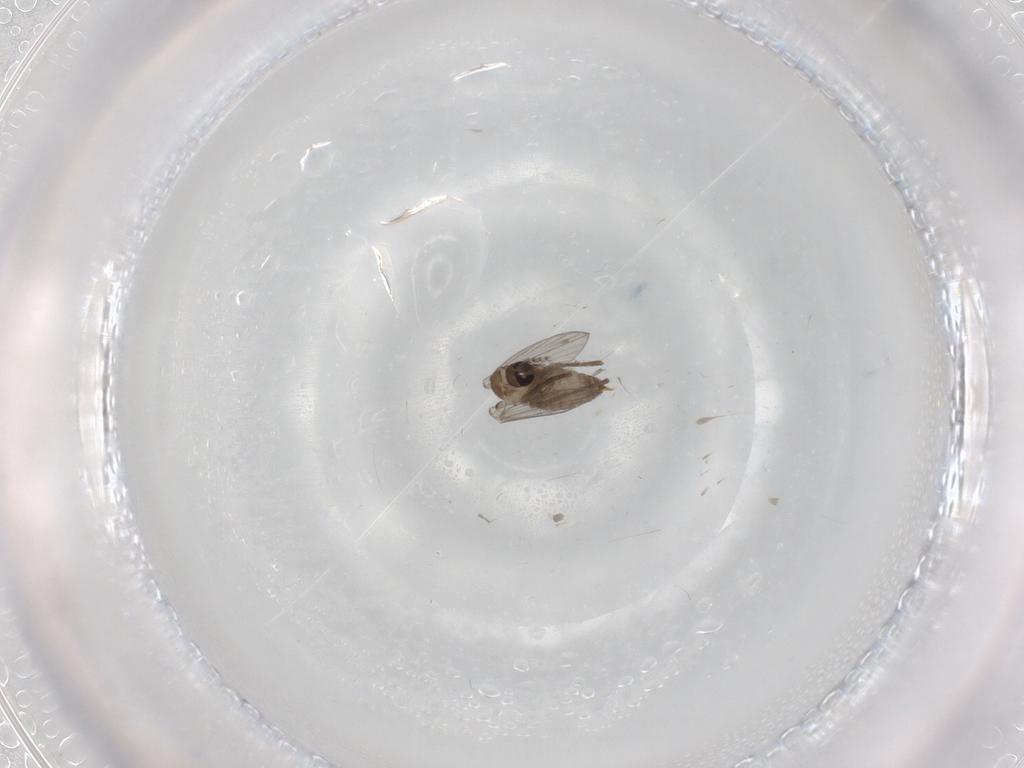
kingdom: Animalia
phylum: Arthropoda
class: Insecta
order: Diptera
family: Psychodidae
